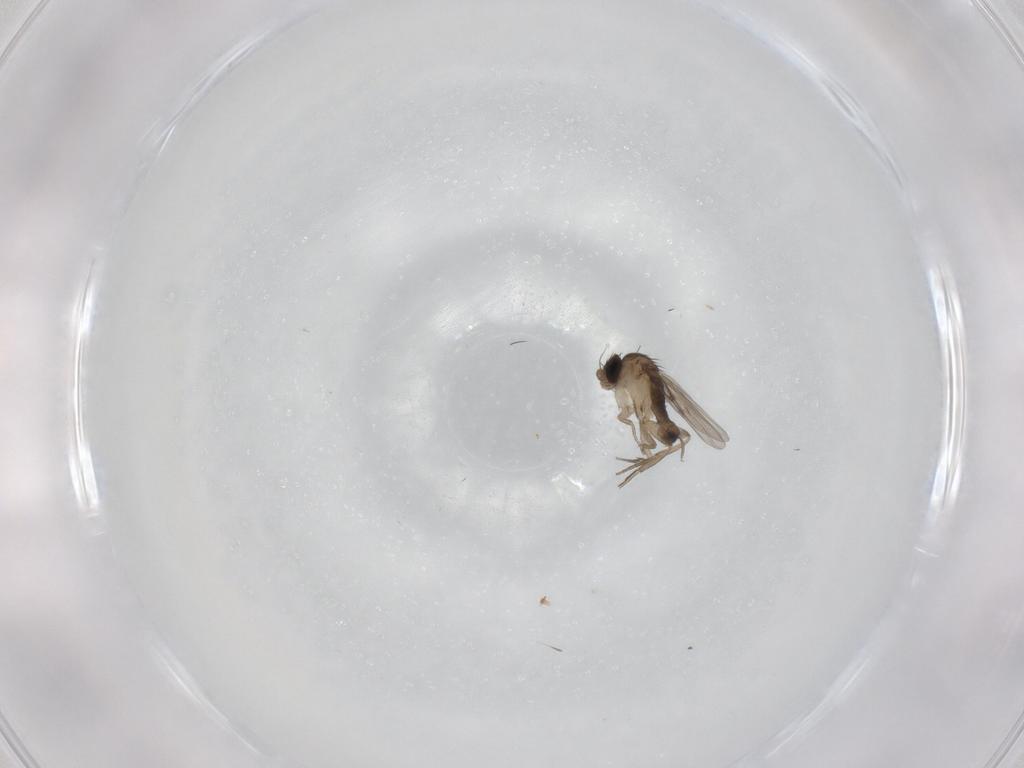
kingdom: Animalia
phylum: Arthropoda
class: Insecta
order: Diptera
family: Phoridae
